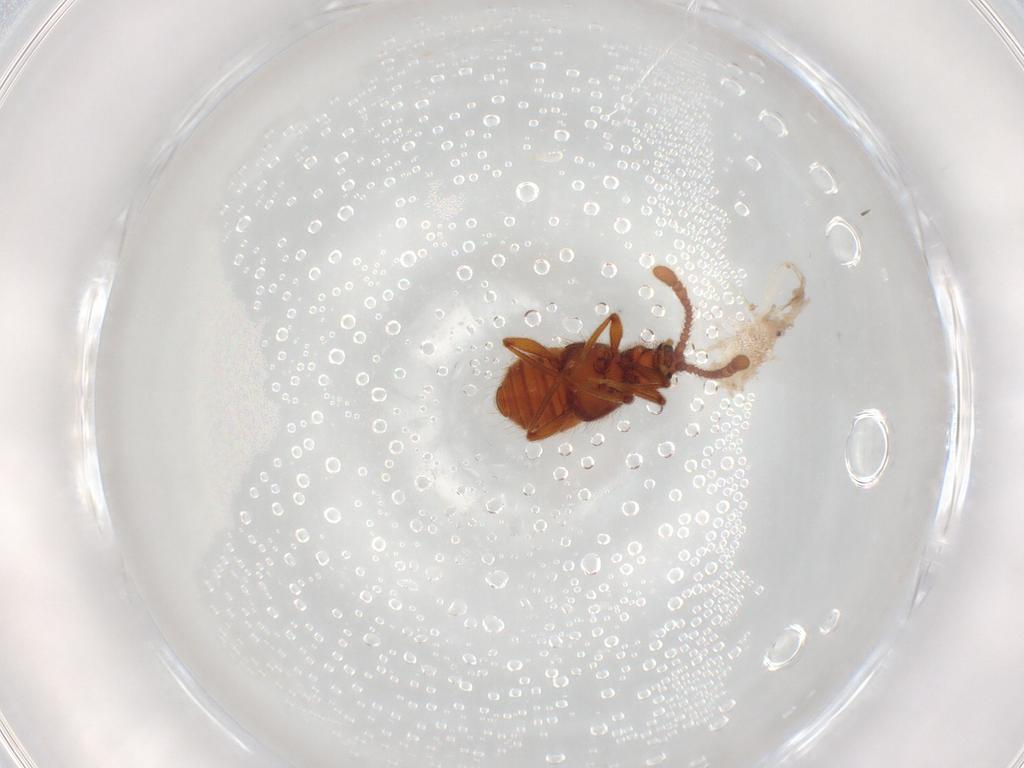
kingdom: Animalia
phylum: Arthropoda
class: Insecta
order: Coleoptera
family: Staphylinidae
